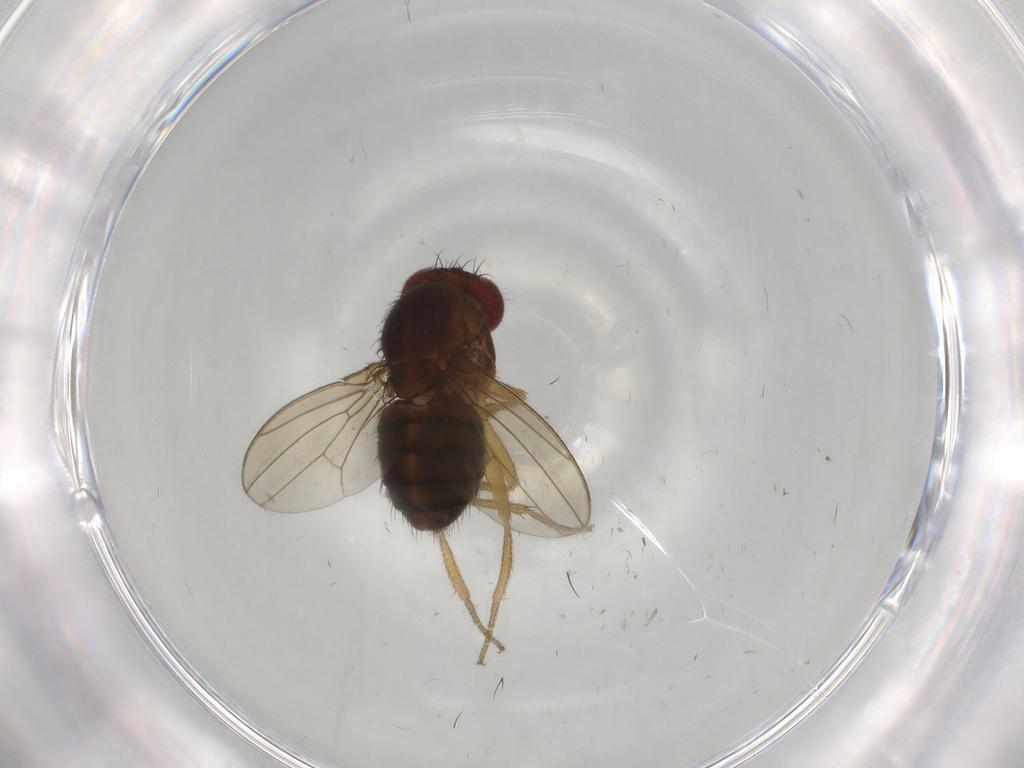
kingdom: Animalia
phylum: Arthropoda
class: Insecta
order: Diptera
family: Drosophilidae
